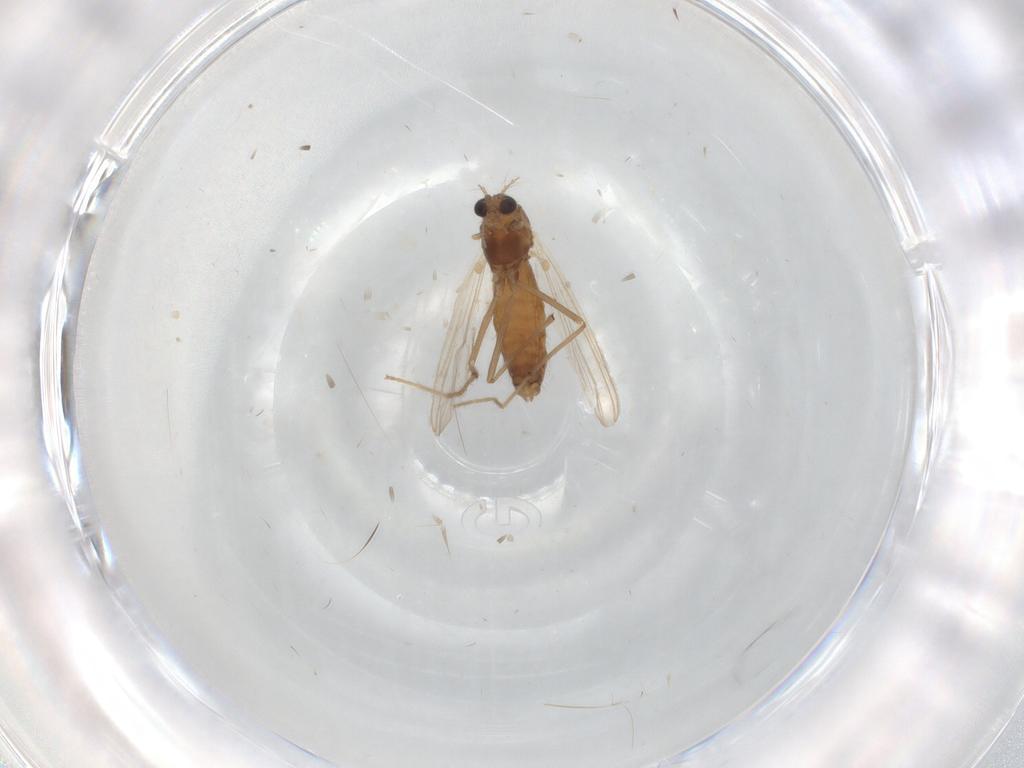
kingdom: Animalia
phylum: Arthropoda
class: Insecta
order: Diptera
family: Chironomidae
